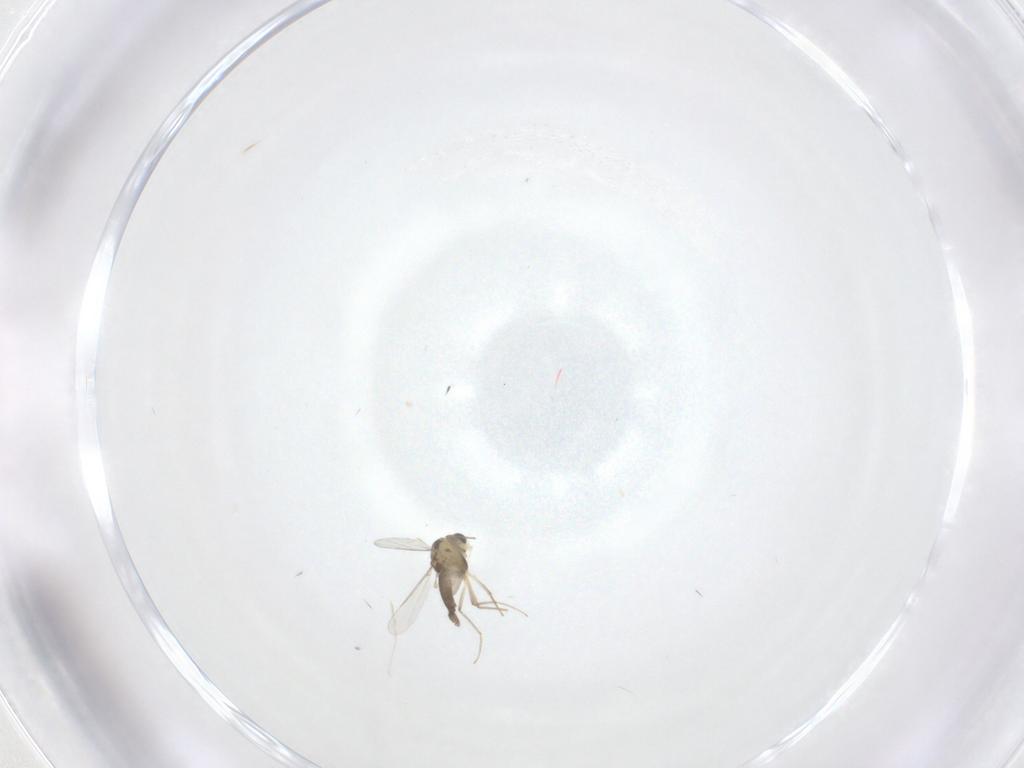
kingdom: Animalia
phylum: Arthropoda
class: Insecta
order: Diptera
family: Chironomidae
